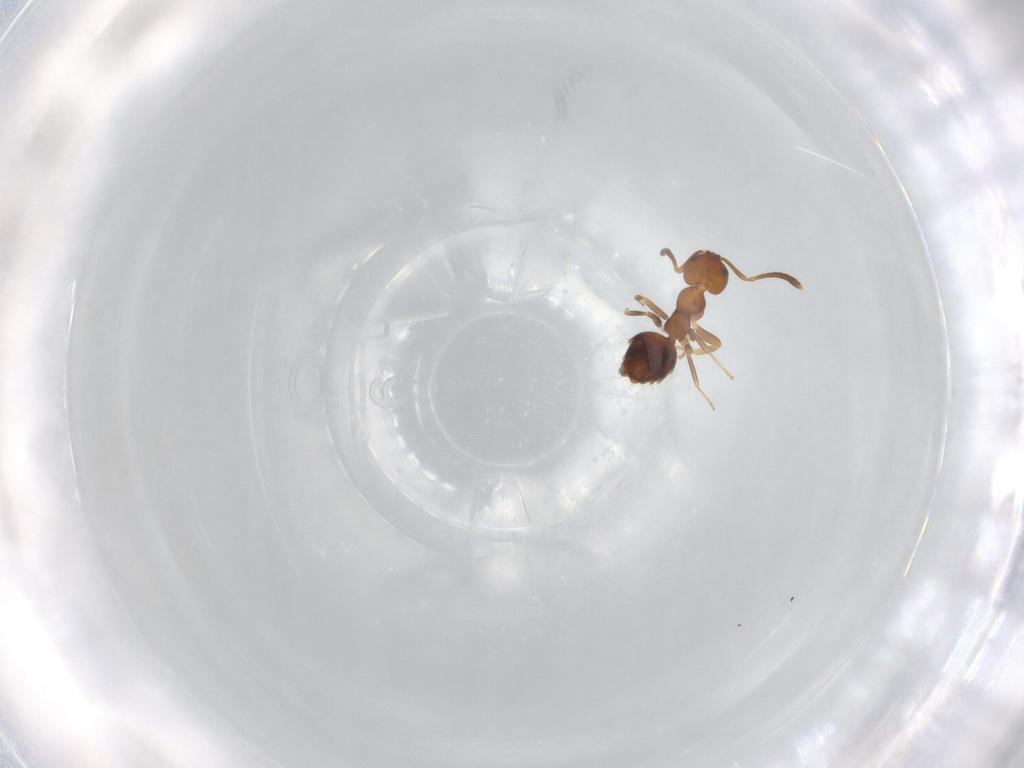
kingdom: Animalia
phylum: Arthropoda
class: Insecta
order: Hymenoptera
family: Formicidae
